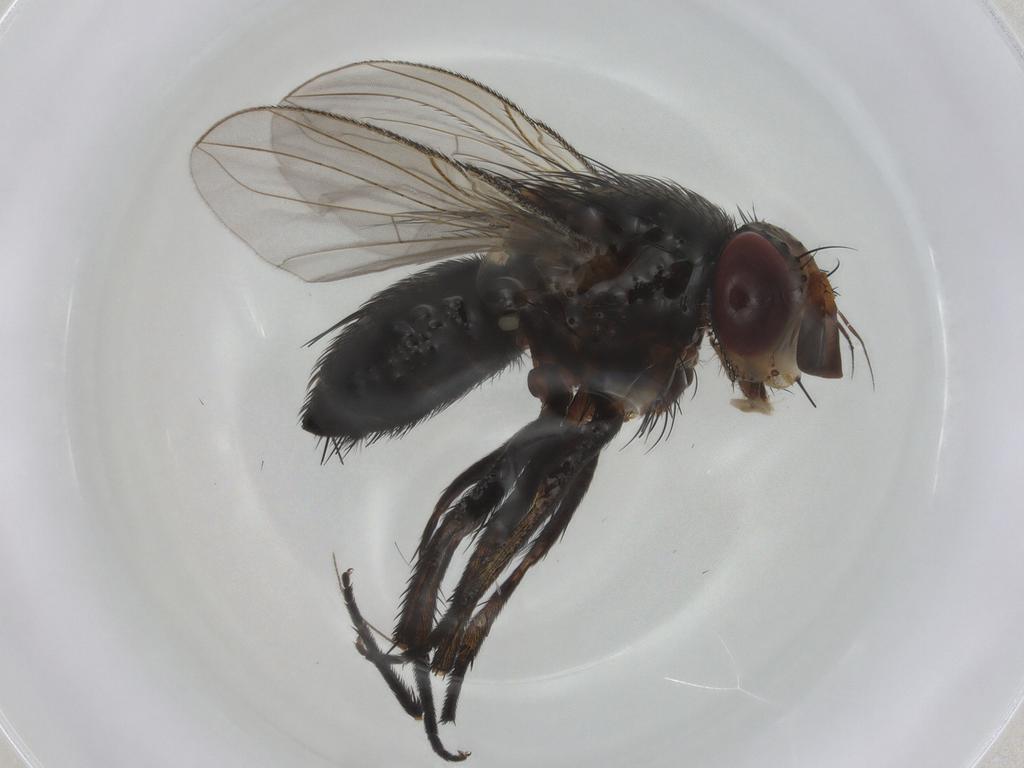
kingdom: Animalia
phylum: Arthropoda
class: Insecta
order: Diptera
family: Tachinidae
